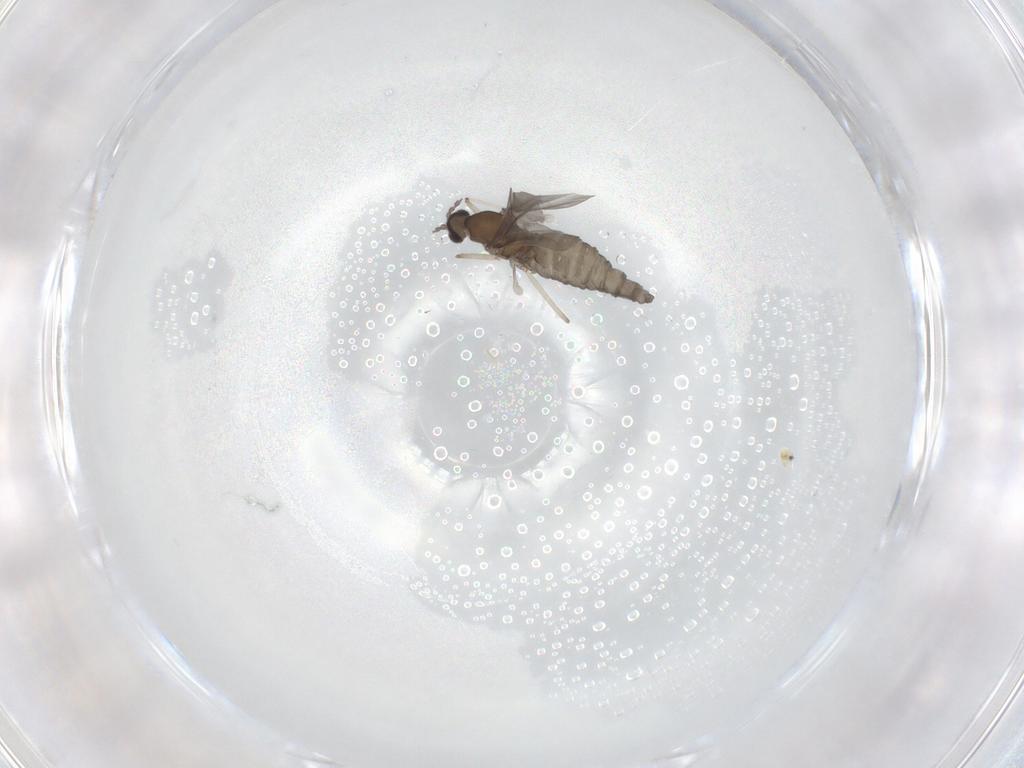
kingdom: Animalia
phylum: Arthropoda
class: Insecta
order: Diptera
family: Cecidomyiidae
